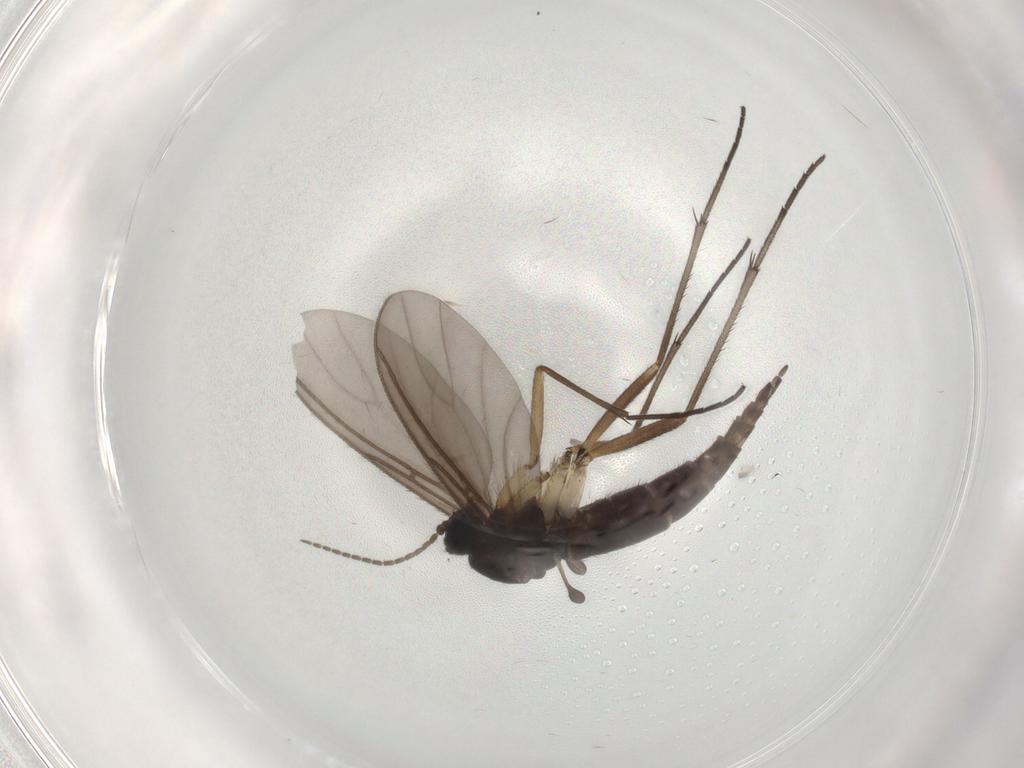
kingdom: Animalia
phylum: Arthropoda
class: Insecta
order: Diptera
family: Sciaridae
